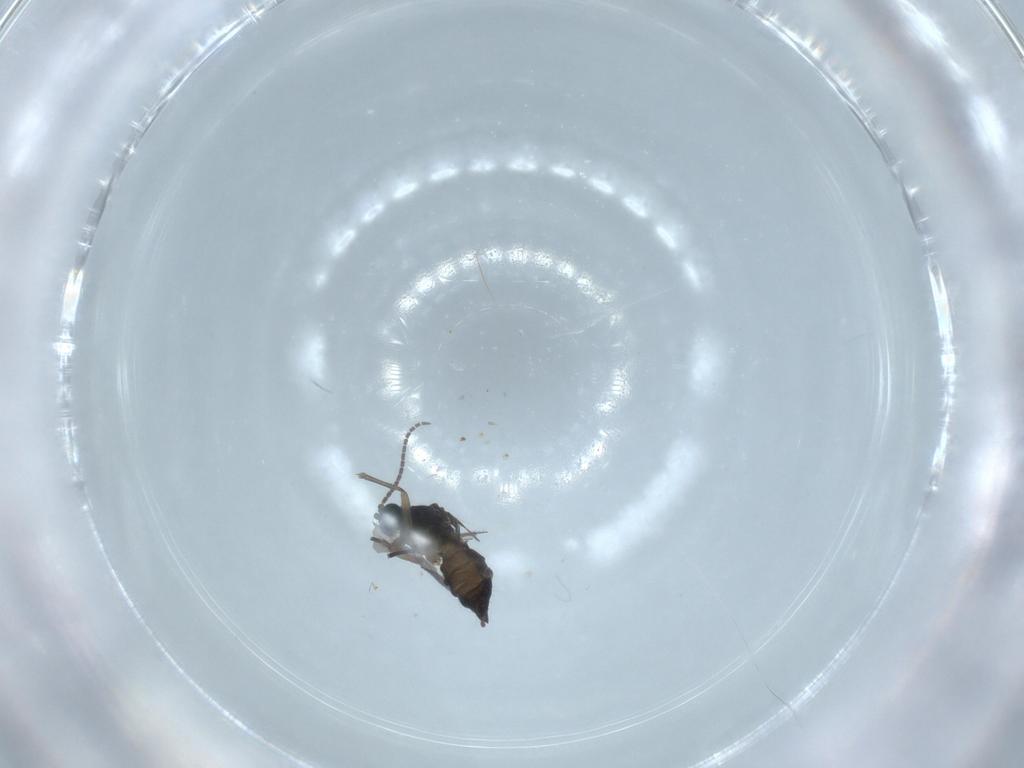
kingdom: Animalia
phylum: Arthropoda
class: Insecta
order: Diptera
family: Sciaridae
